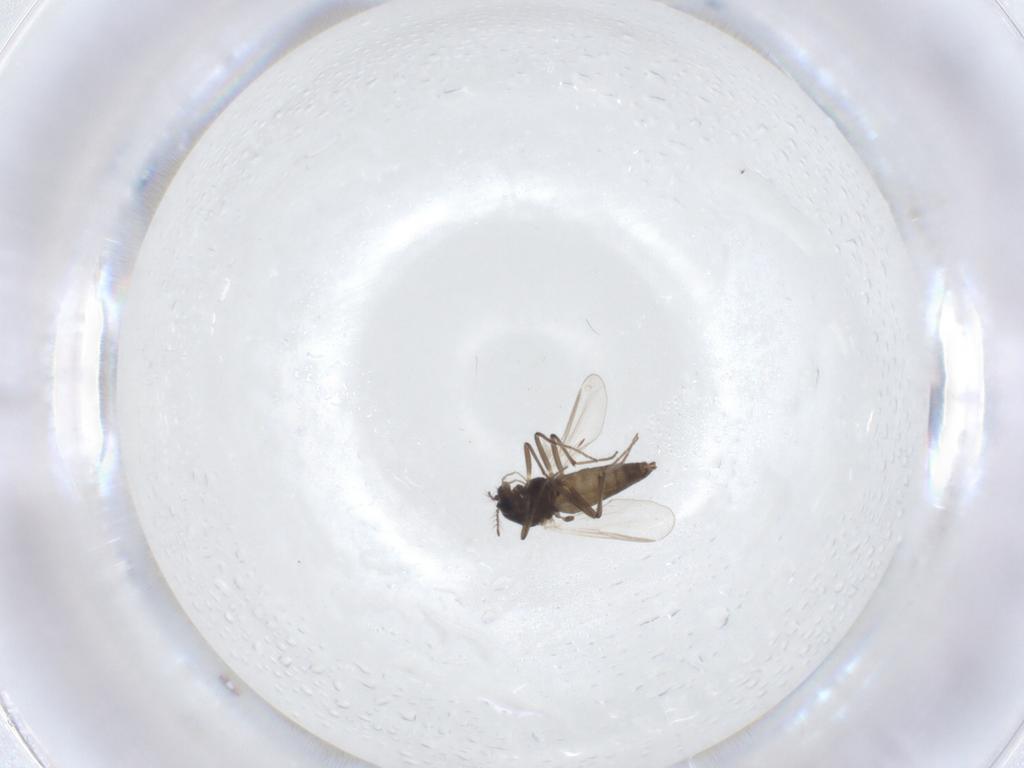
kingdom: Animalia
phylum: Arthropoda
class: Insecta
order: Diptera
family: Chironomidae
